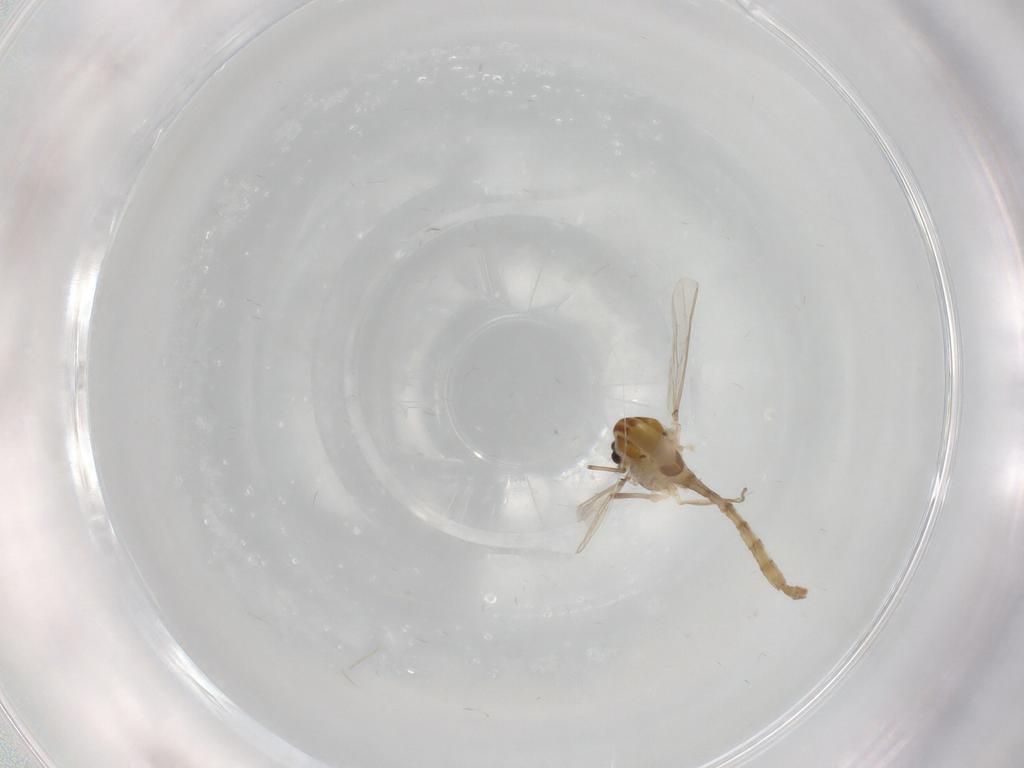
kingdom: Animalia
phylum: Arthropoda
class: Insecta
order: Diptera
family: Chironomidae
